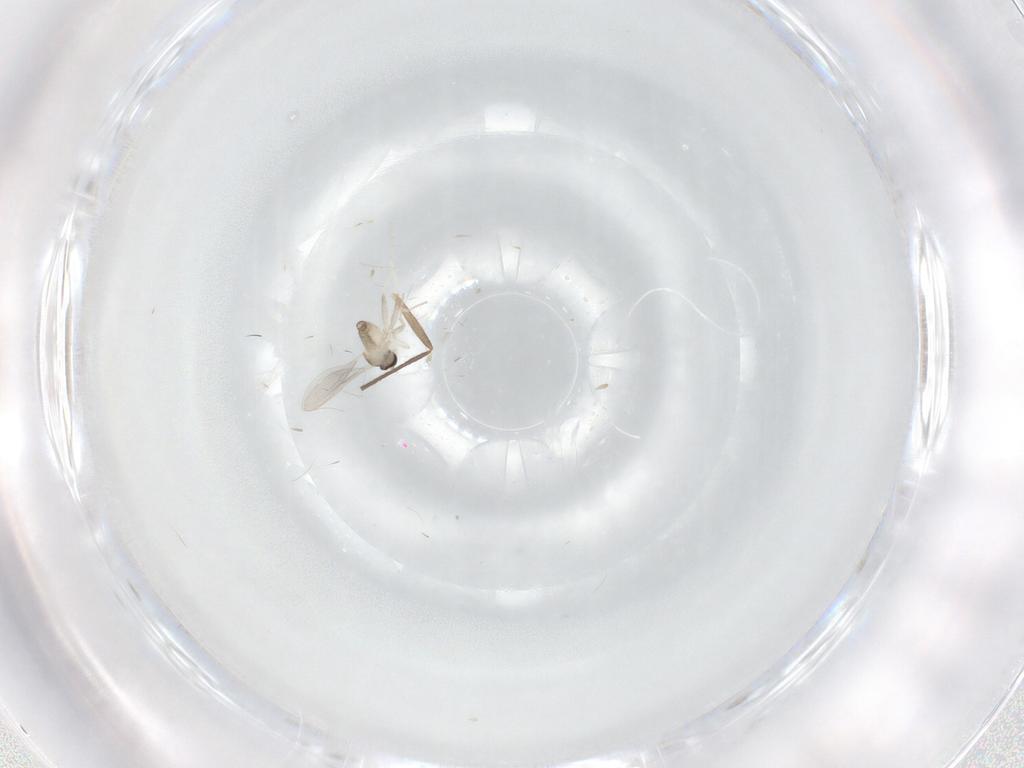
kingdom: Animalia
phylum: Arthropoda
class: Insecta
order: Diptera
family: Cecidomyiidae
